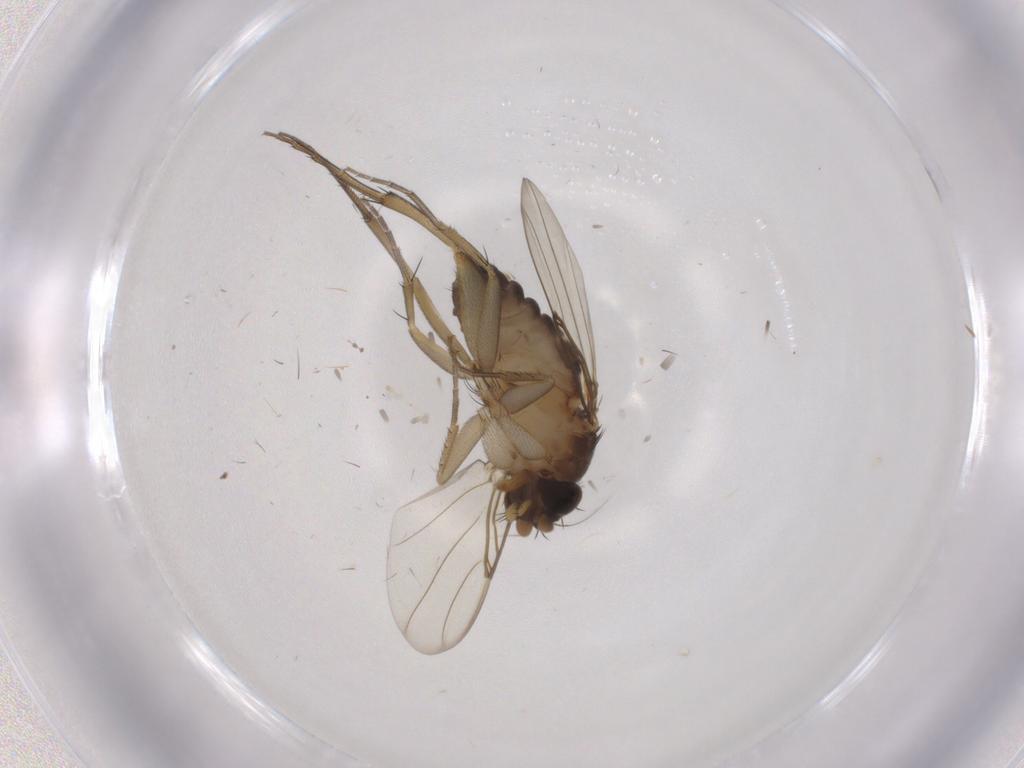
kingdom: Animalia
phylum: Arthropoda
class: Insecta
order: Diptera
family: Phoridae
